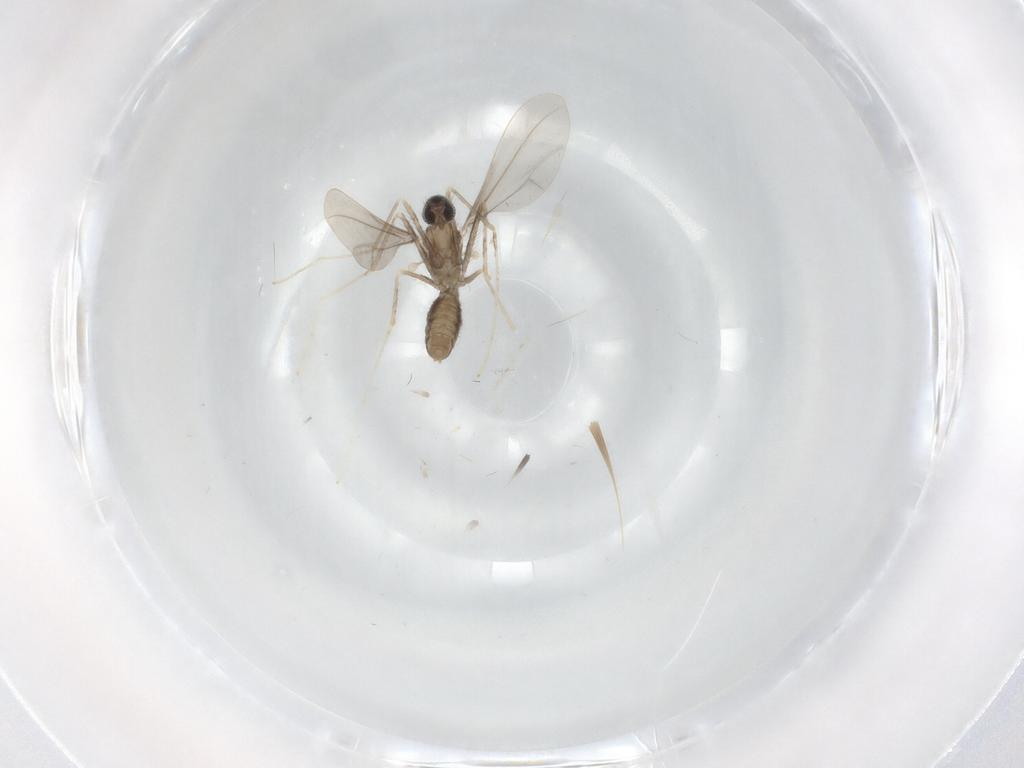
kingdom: Animalia
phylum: Arthropoda
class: Insecta
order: Diptera
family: Cecidomyiidae
